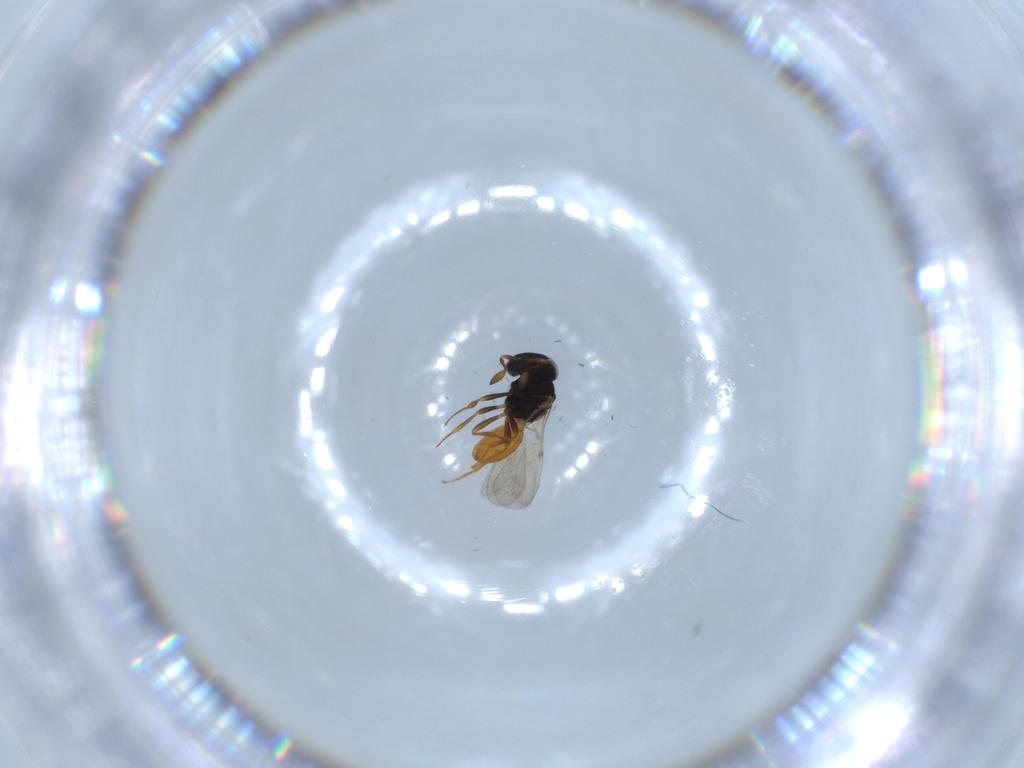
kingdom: Animalia
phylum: Arthropoda
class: Insecta
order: Hymenoptera
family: Scelionidae
